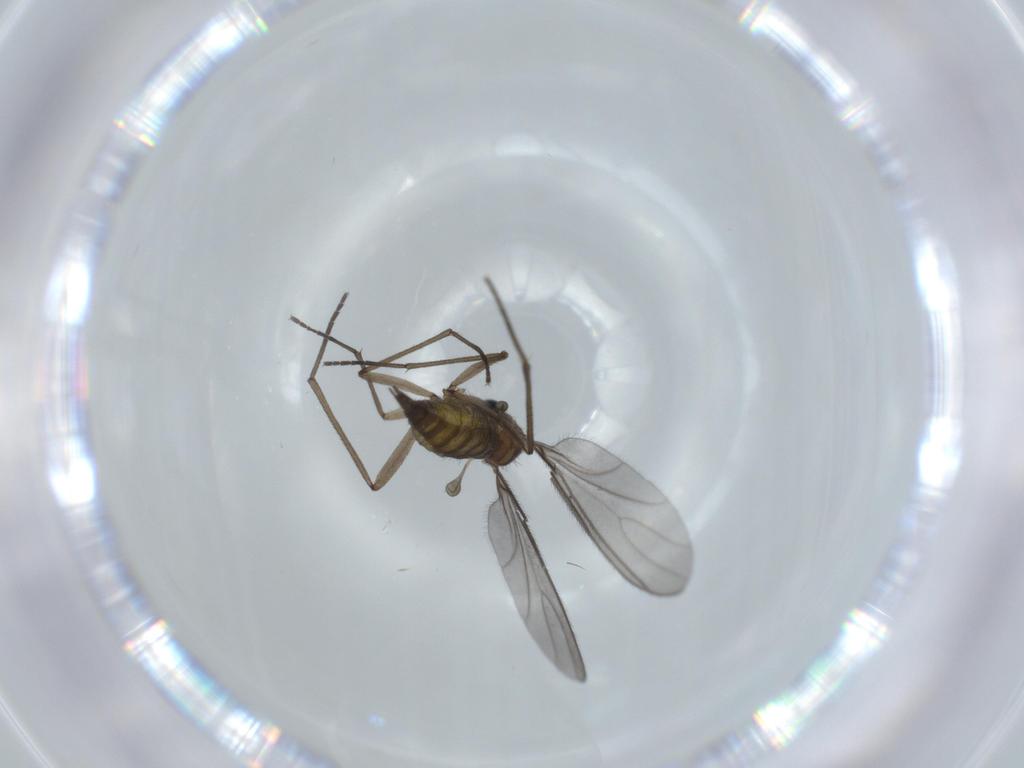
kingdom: Animalia
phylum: Arthropoda
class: Insecta
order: Diptera
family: Sciaridae
